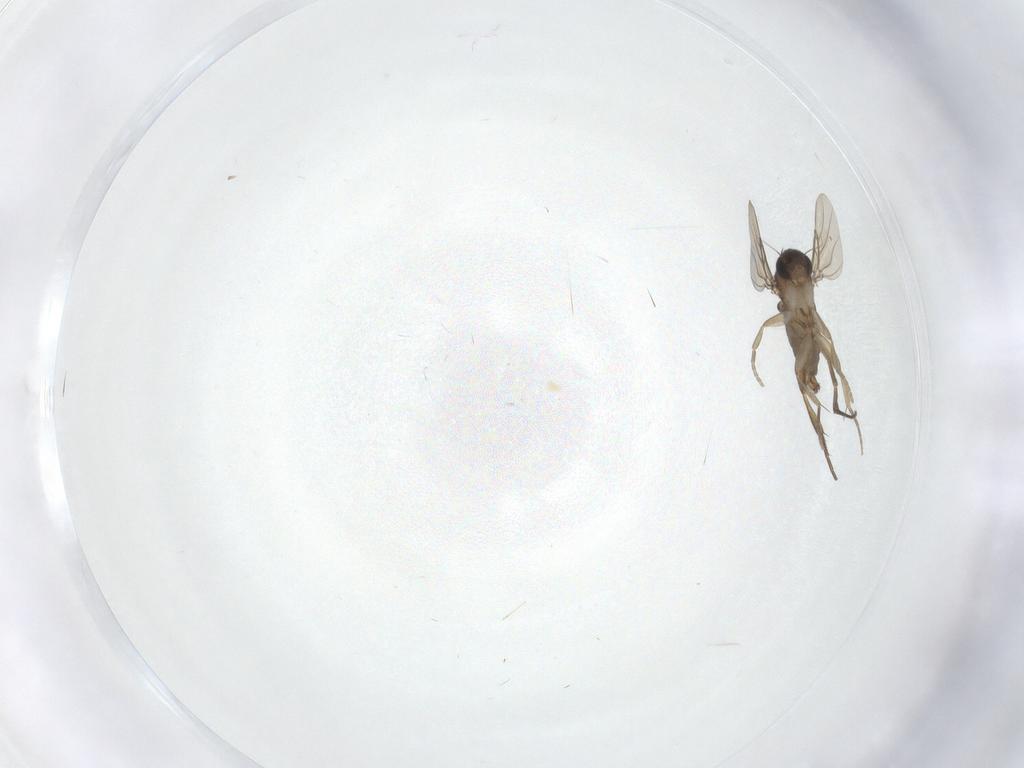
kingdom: Animalia
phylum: Arthropoda
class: Insecta
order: Diptera
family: Phoridae
